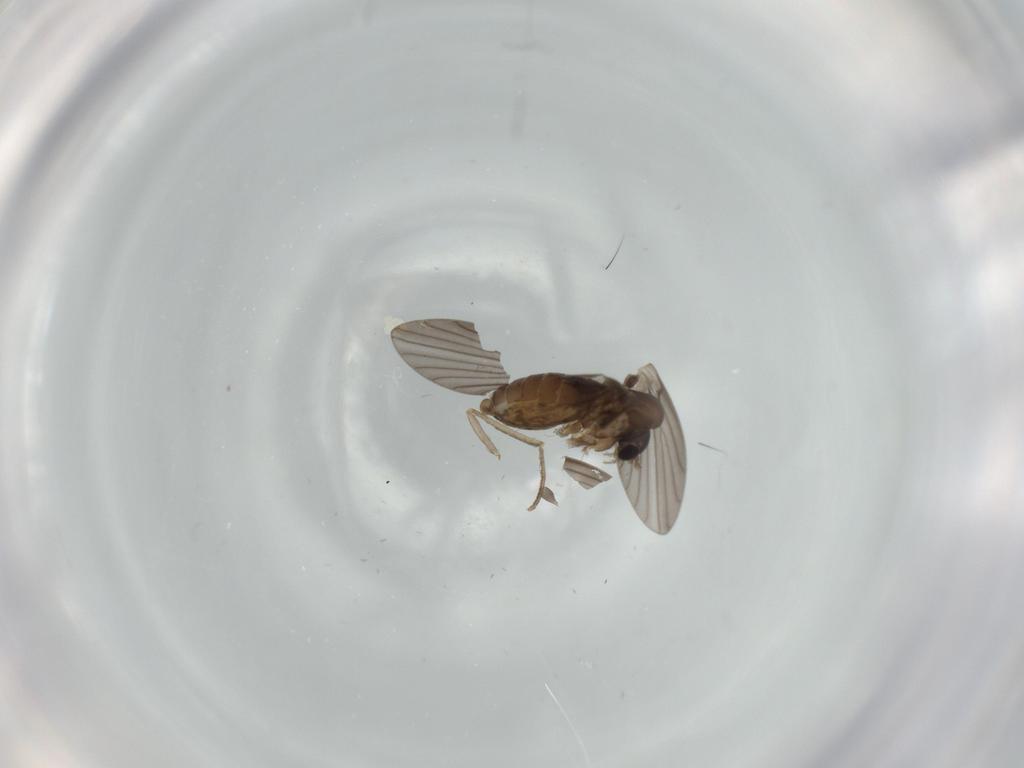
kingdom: Animalia
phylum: Arthropoda
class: Insecta
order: Diptera
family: Psychodidae
